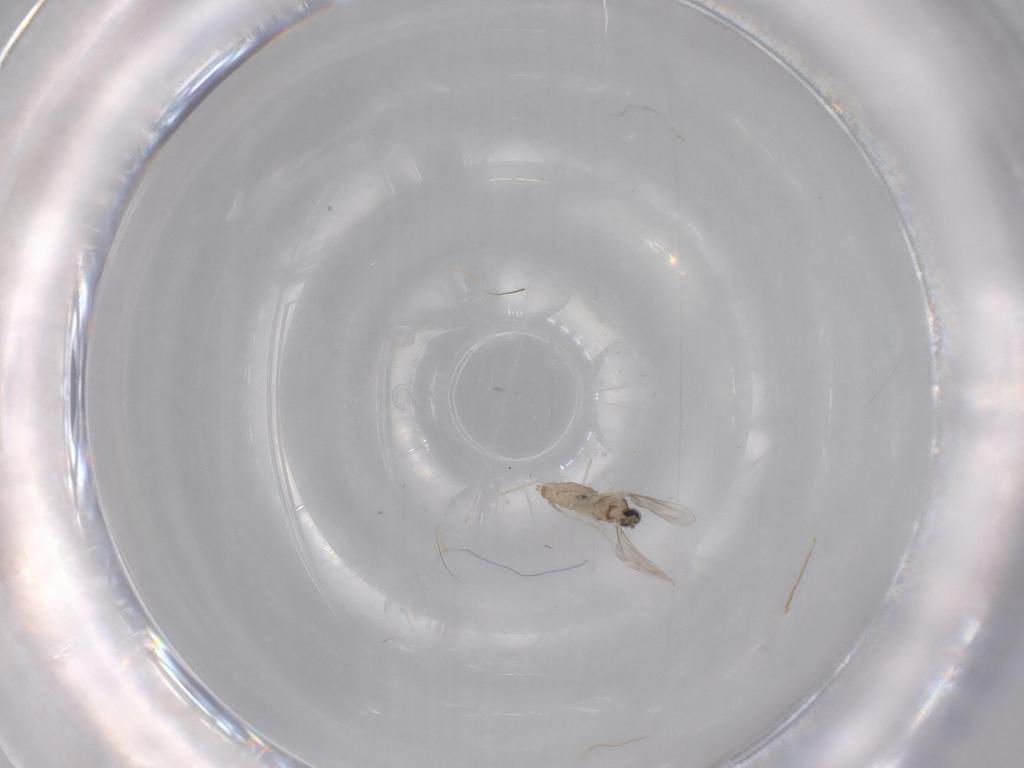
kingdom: Animalia
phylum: Arthropoda
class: Insecta
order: Diptera
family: Cecidomyiidae
